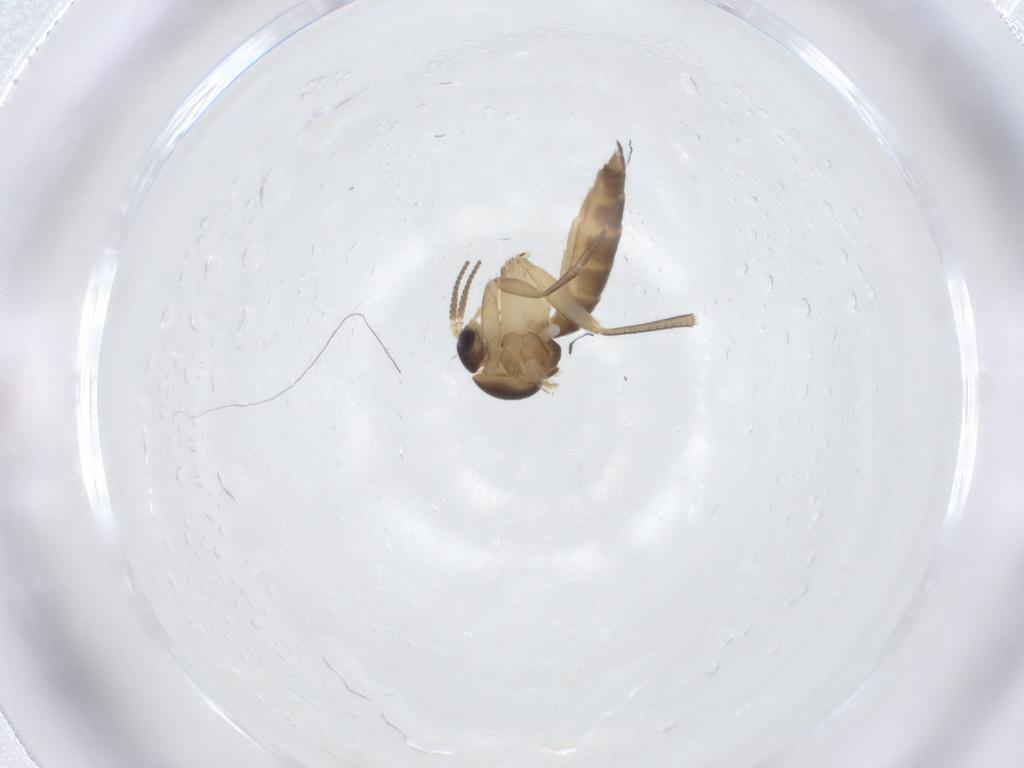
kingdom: Animalia
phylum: Arthropoda
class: Insecta
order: Diptera
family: Mycetophilidae
